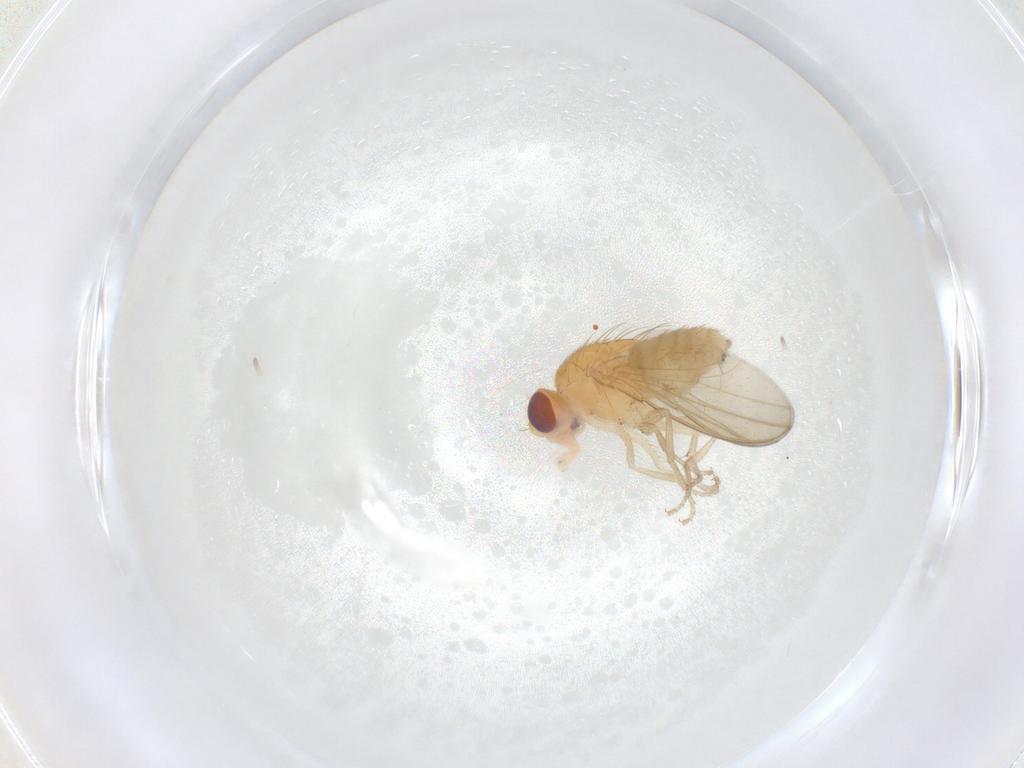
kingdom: Animalia
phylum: Arthropoda
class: Insecta
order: Diptera
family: Drosophilidae
